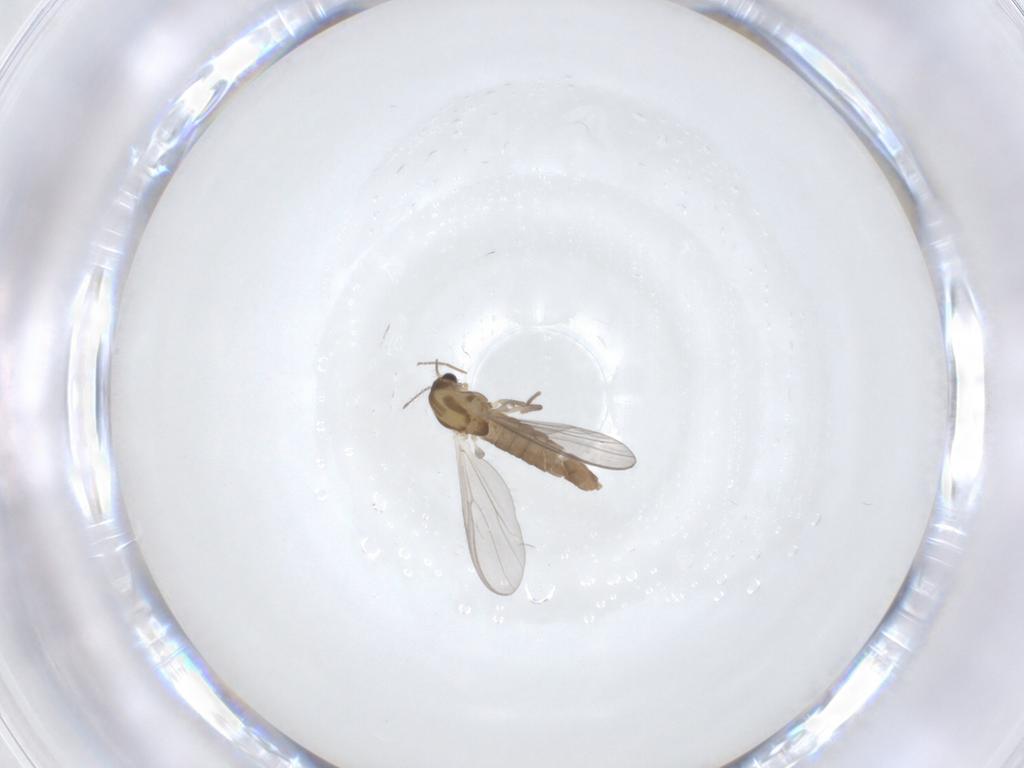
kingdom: Animalia
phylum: Arthropoda
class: Insecta
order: Diptera
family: Chironomidae
